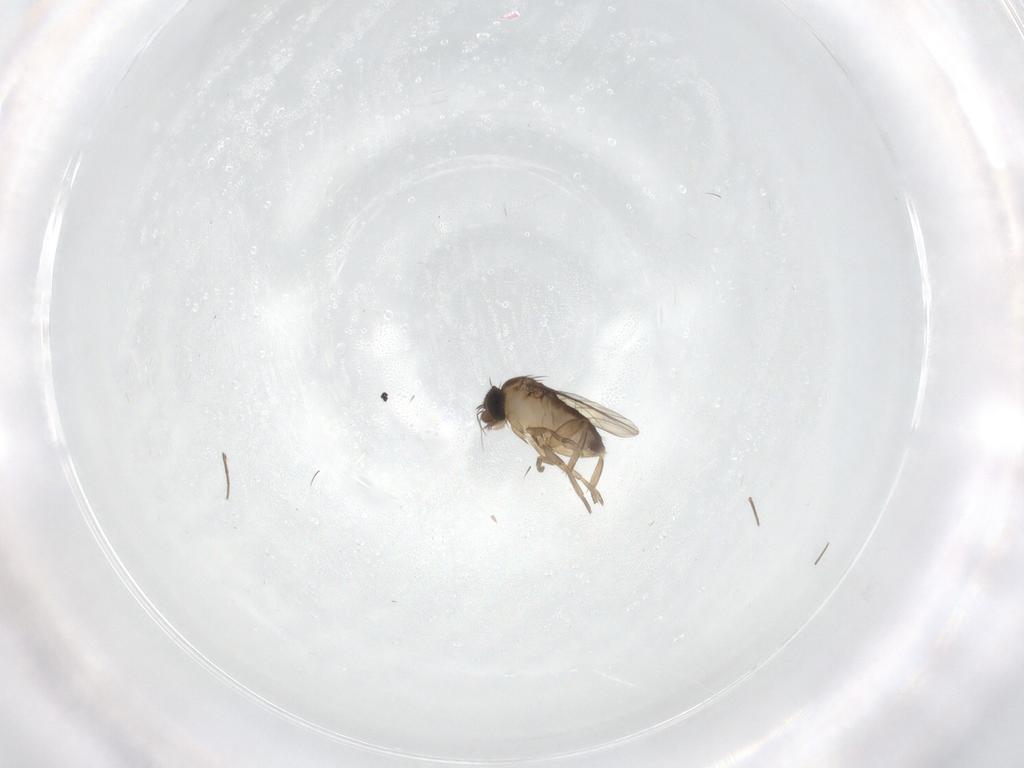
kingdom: Animalia
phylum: Arthropoda
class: Insecta
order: Diptera
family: Phoridae
